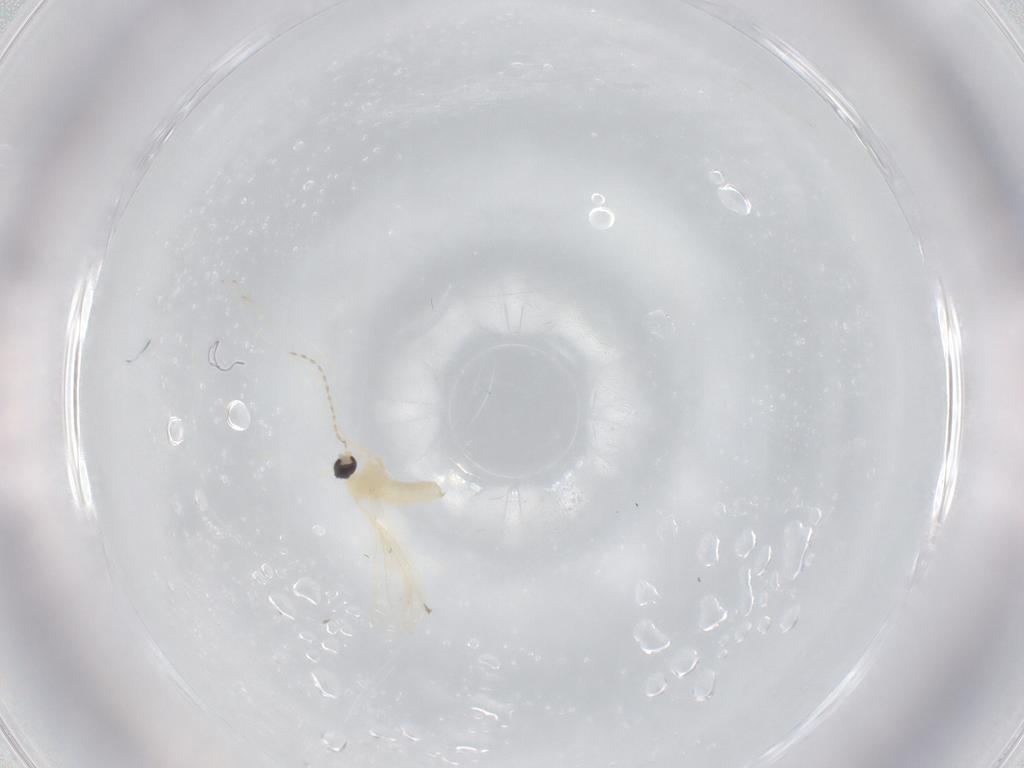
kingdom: Animalia
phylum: Arthropoda
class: Insecta
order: Diptera
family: Cecidomyiidae
